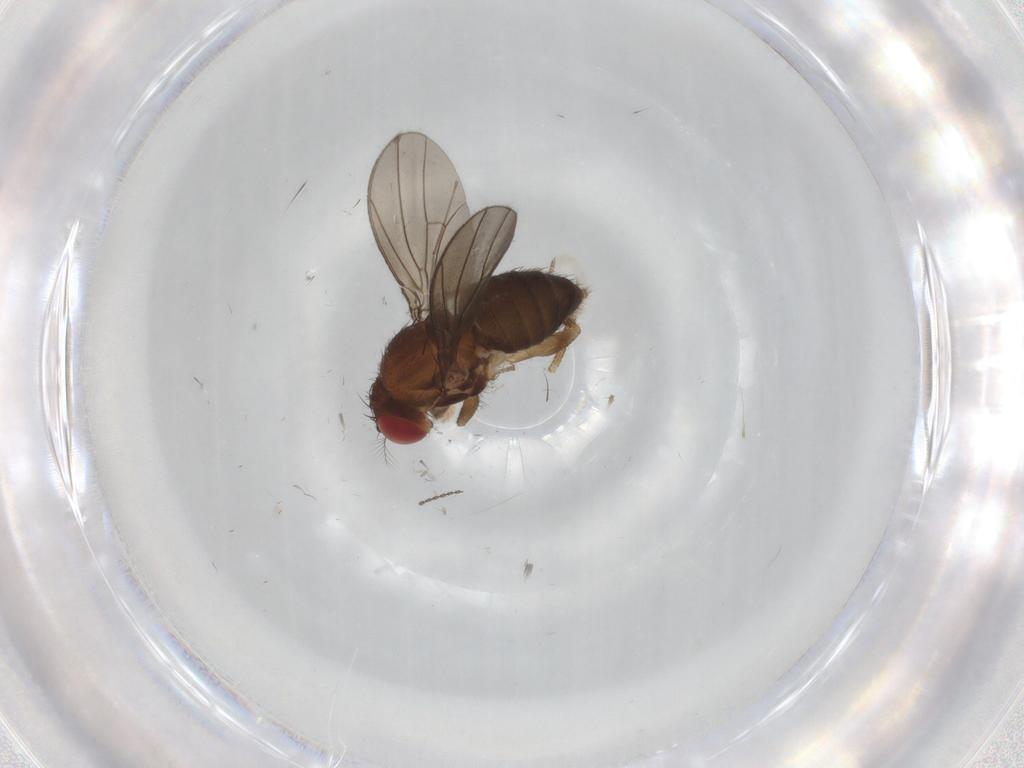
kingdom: Animalia
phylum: Arthropoda
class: Insecta
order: Diptera
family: Drosophilidae
